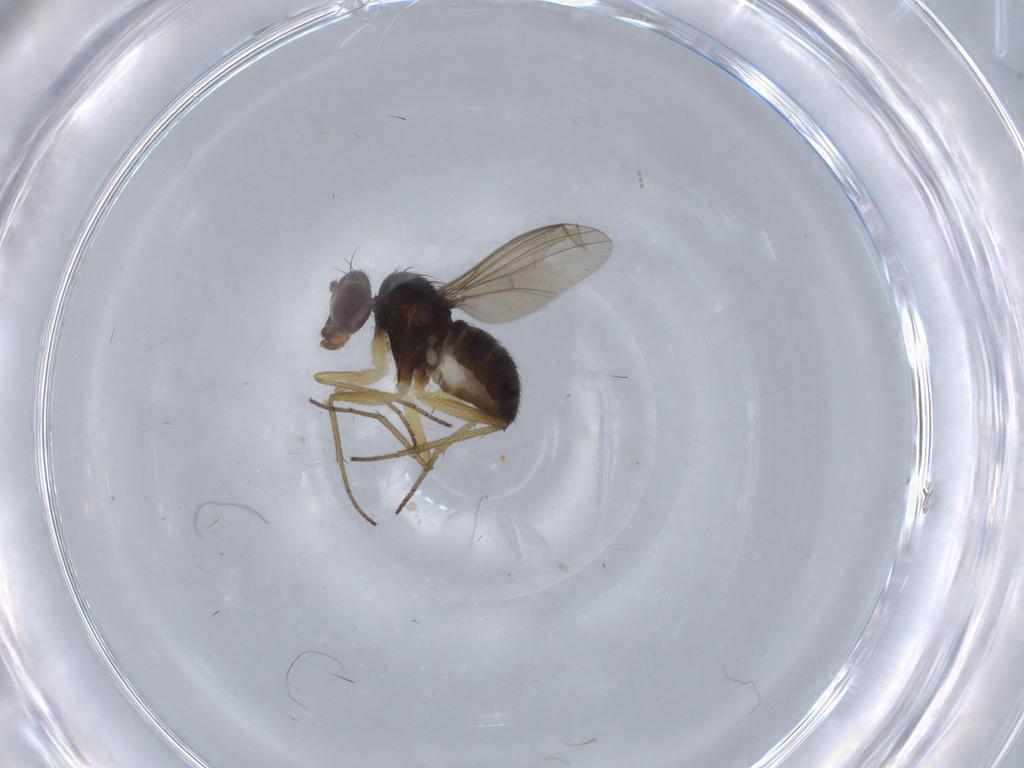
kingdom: Animalia
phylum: Arthropoda
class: Insecta
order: Diptera
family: Dolichopodidae
